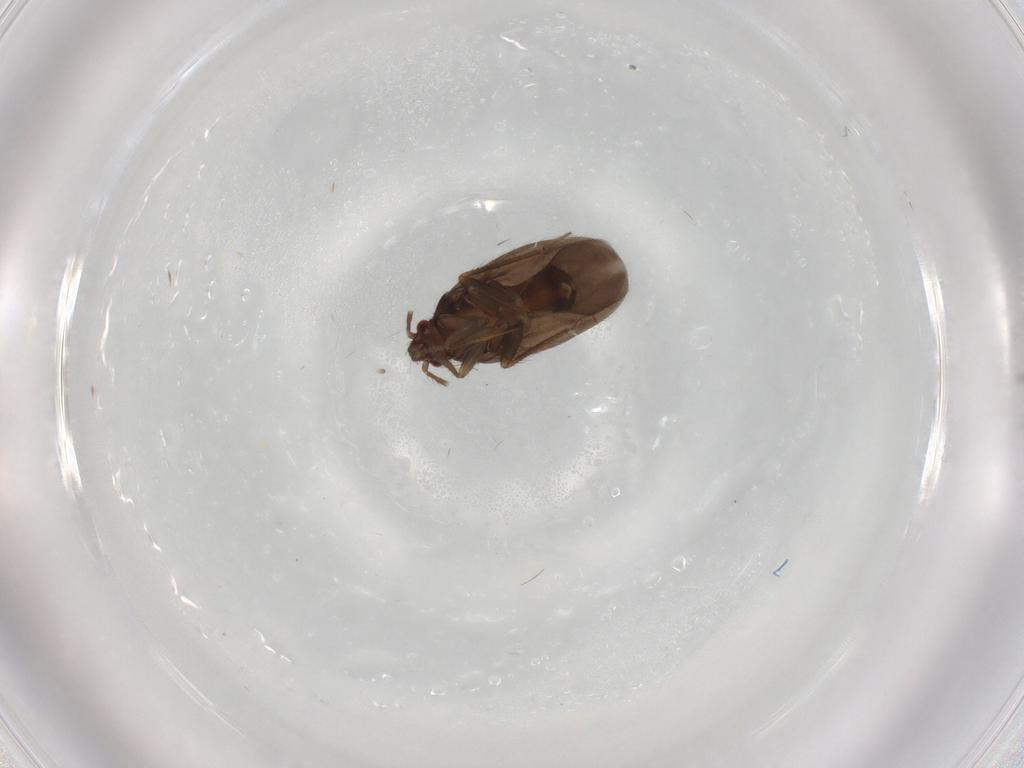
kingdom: Animalia
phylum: Arthropoda
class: Insecta
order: Hemiptera
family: Ceratocombidae
